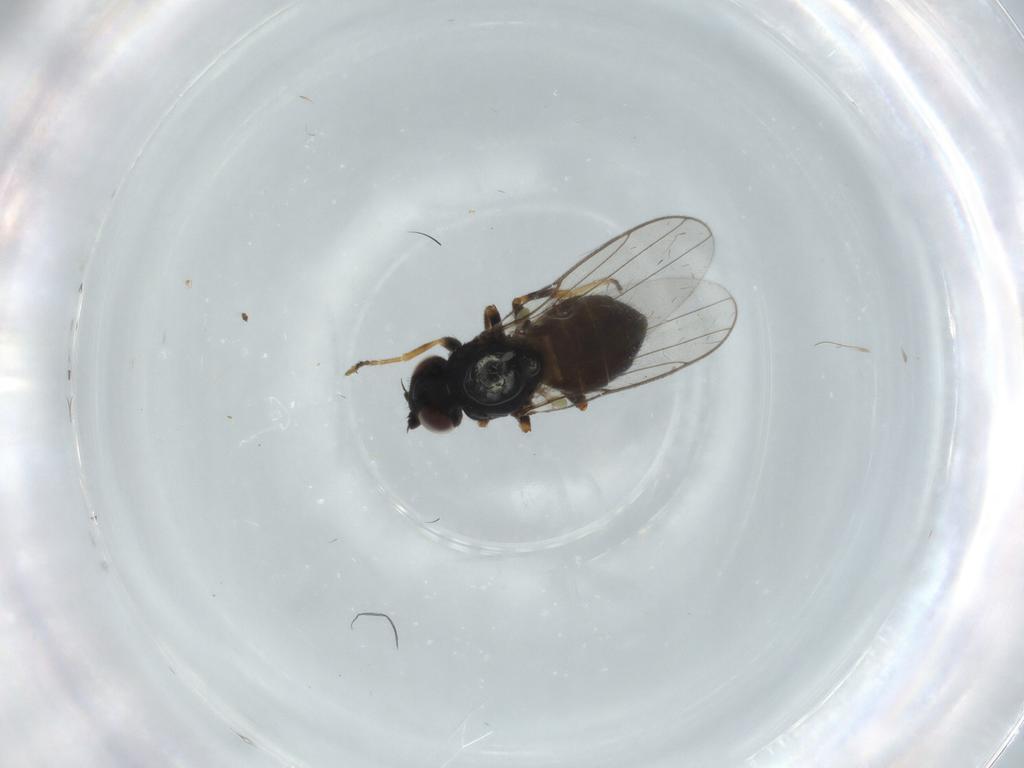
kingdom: Animalia
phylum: Arthropoda
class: Insecta
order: Diptera
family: Chloropidae
